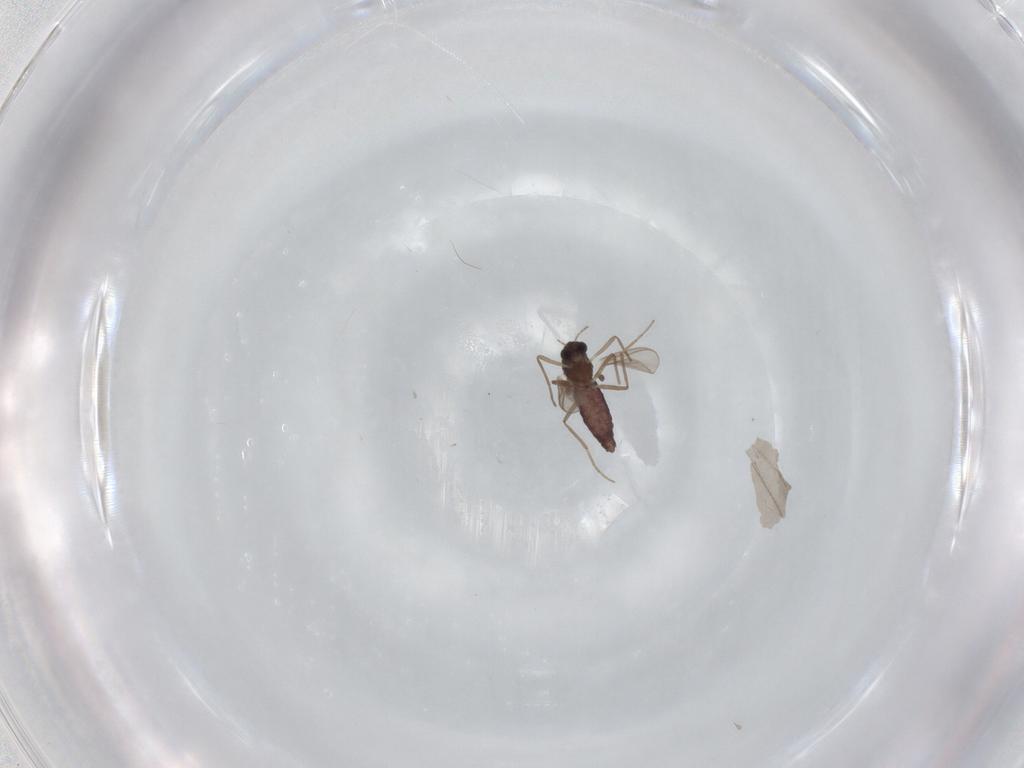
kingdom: Animalia
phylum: Arthropoda
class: Insecta
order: Diptera
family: Chironomidae
